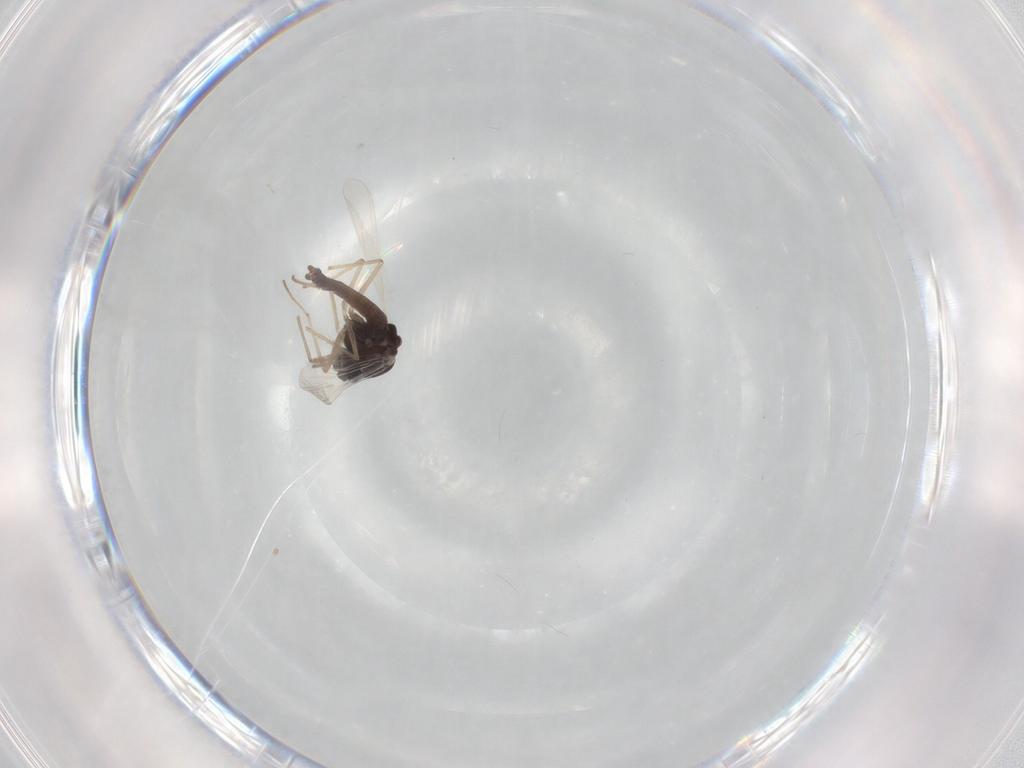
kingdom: Animalia
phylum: Arthropoda
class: Insecta
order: Diptera
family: Chironomidae
